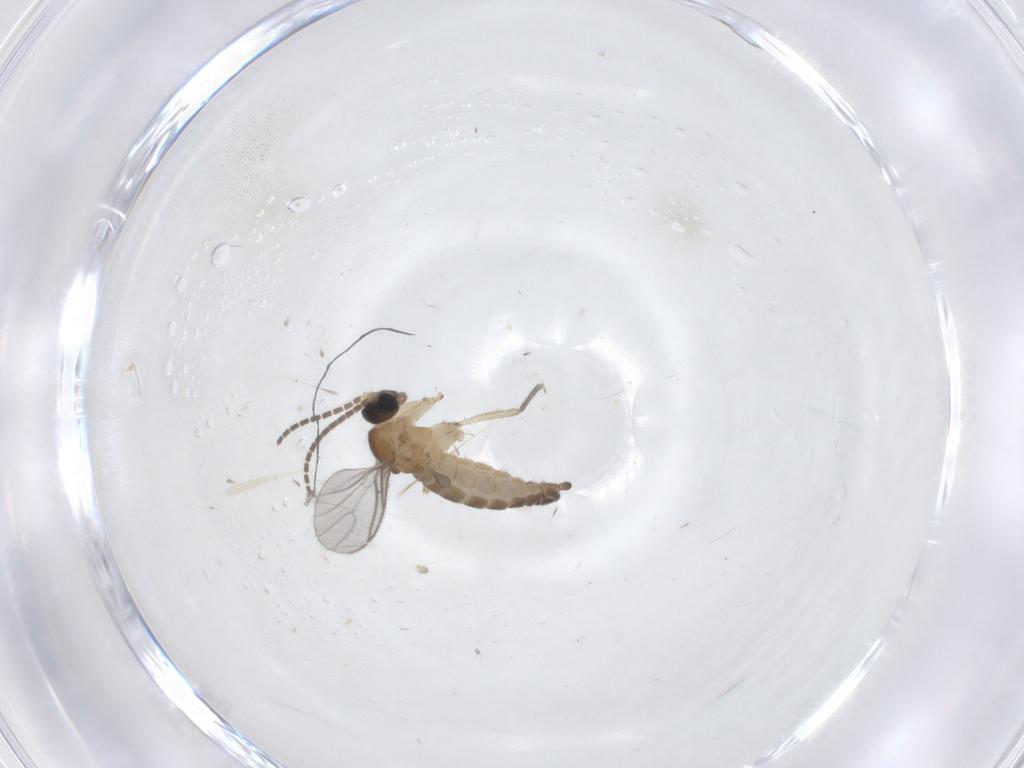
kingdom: Animalia
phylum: Arthropoda
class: Insecta
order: Diptera
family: Sciaridae
